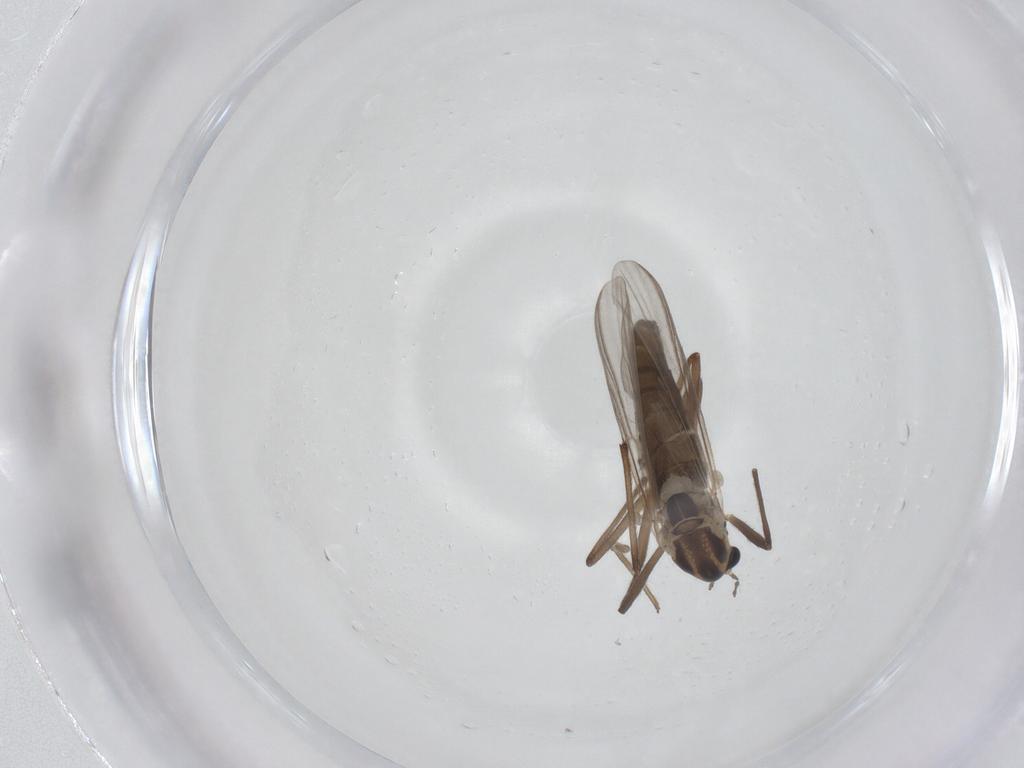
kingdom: Animalia
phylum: Arthropoda
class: Insecta
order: Diptera
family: Chironomidae
